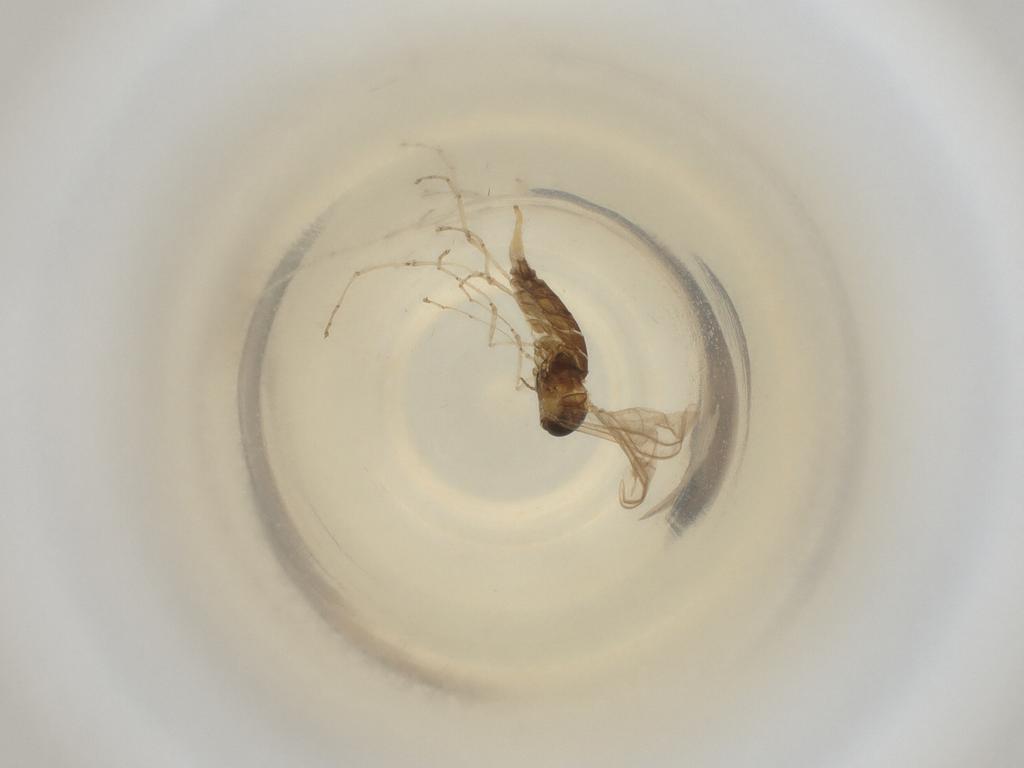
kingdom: Animalia
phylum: Arthropoda
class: Insecta
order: Diptera
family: Cecidomyiidae
